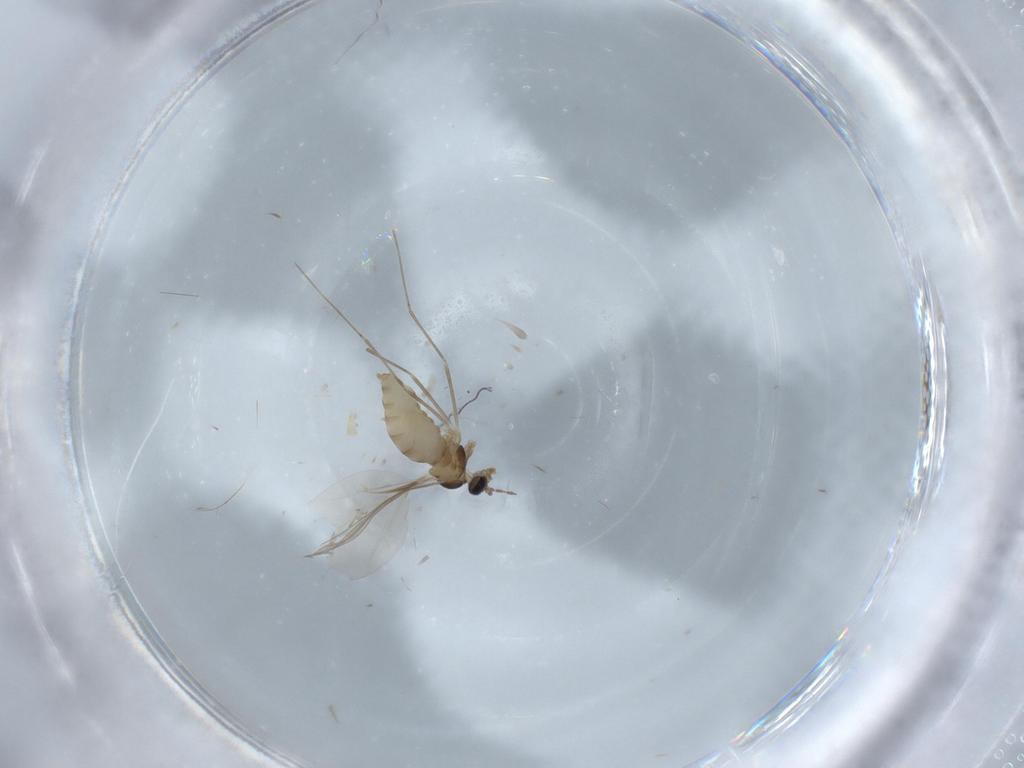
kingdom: Animalia
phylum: Arthropoda
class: Insecta
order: Diptera
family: Cecidomyiidae
